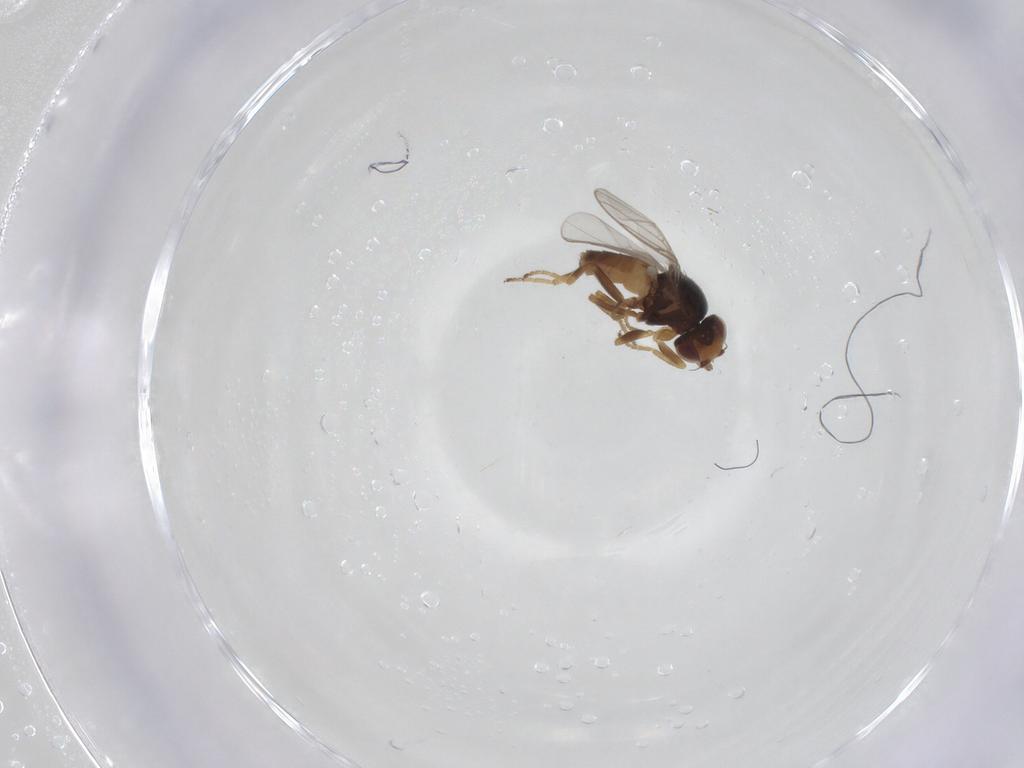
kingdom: Animalia
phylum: Arthropoda
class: Insecta
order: Diptera
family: Chloropidae
